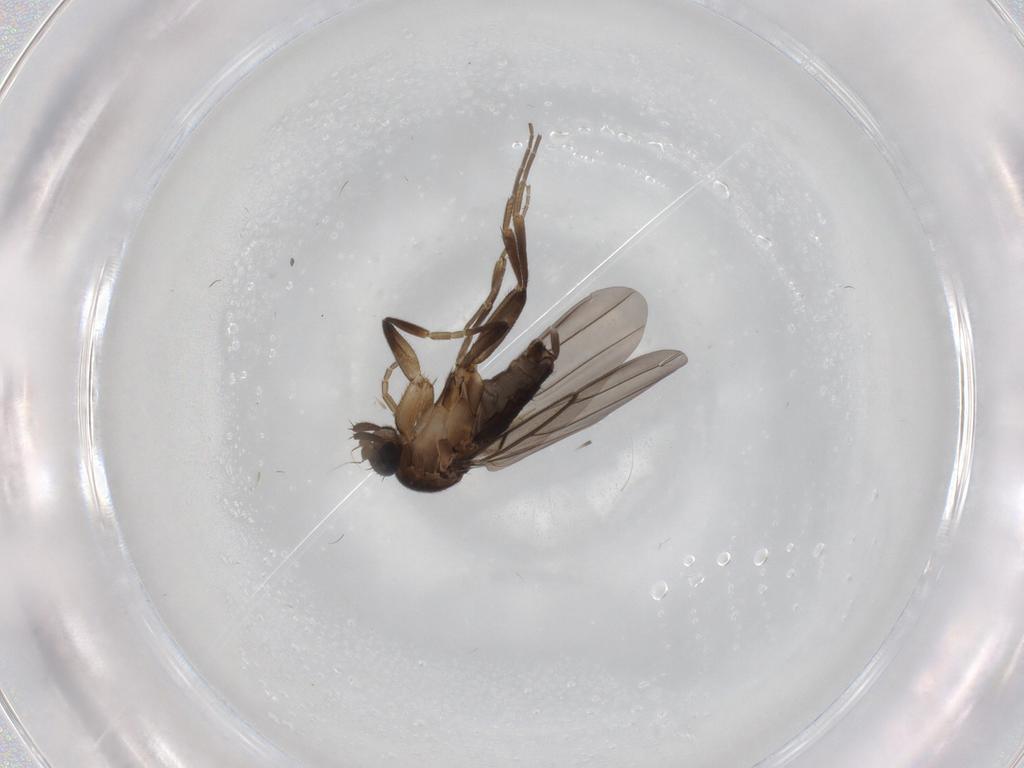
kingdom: Animalia
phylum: Arthropoda
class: Insecta
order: Diptera
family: Phoridae
